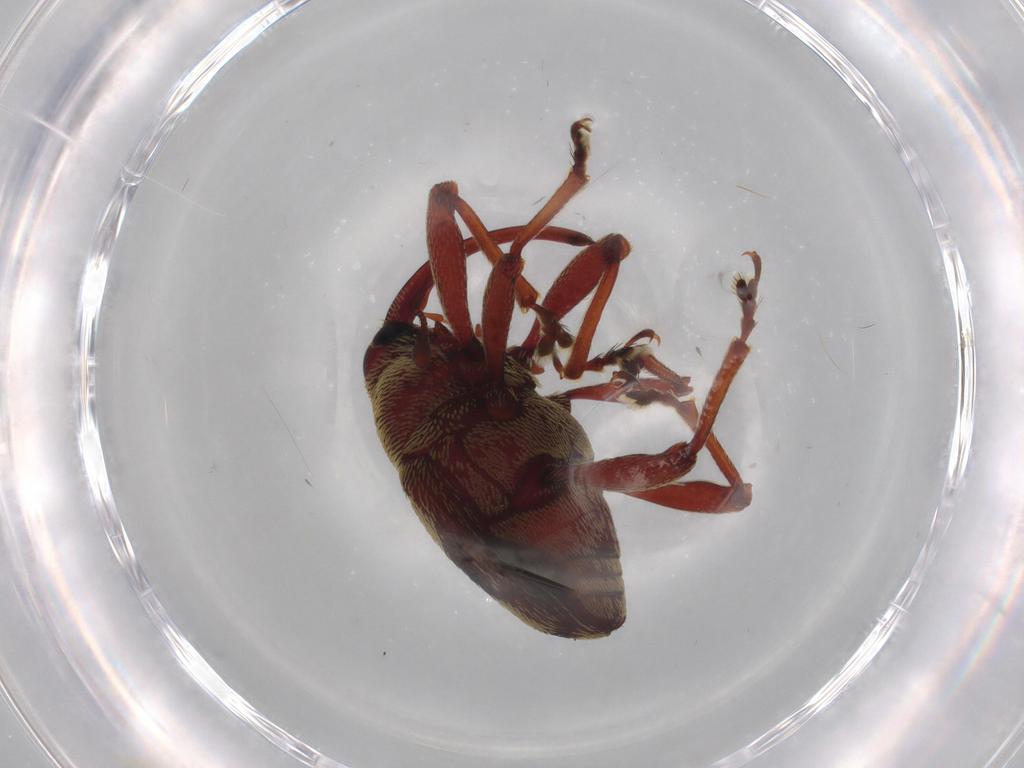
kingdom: Animalia
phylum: Arthropoda
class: Insecta
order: Coleoptera
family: Curculionidae
